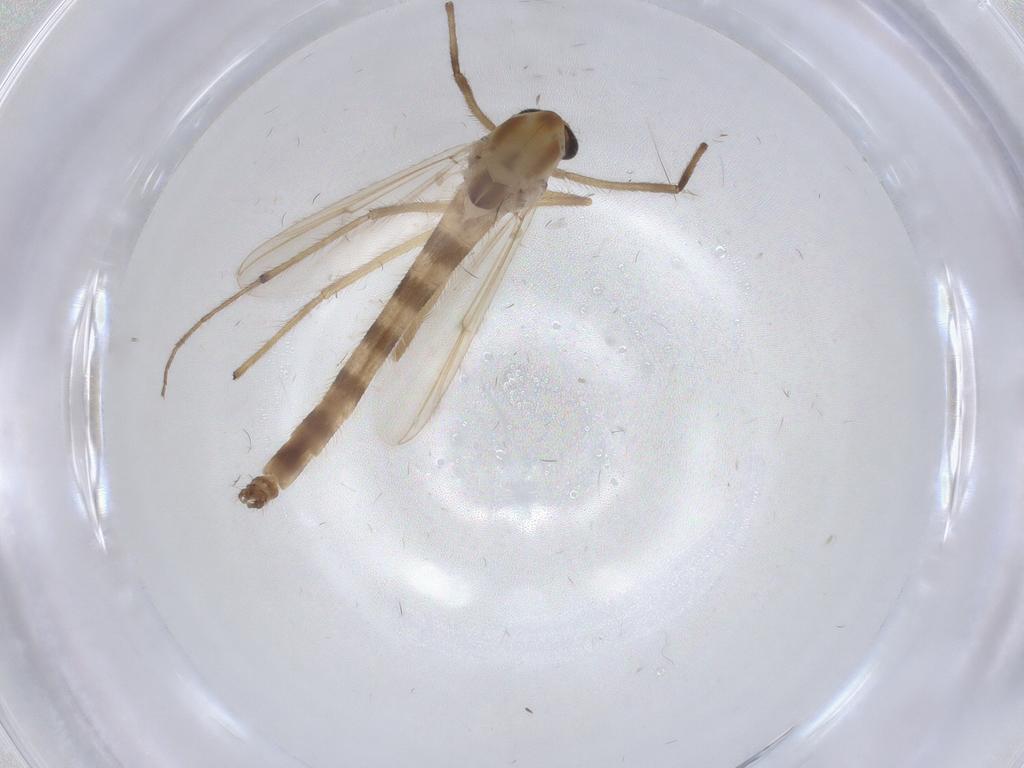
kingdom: Animalia
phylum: Arthropoda
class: Insecta
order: Diptera
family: Chironomidae
